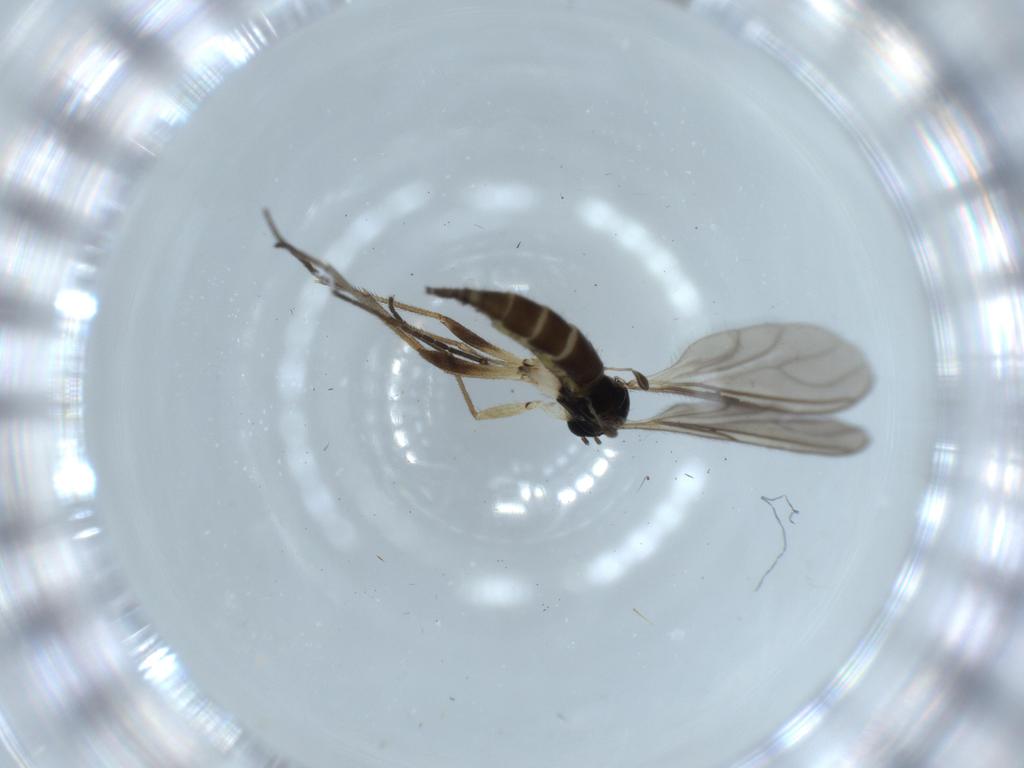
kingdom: Animalia
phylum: Arthropoda
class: Insecta
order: Diptera
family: Sciaridae
